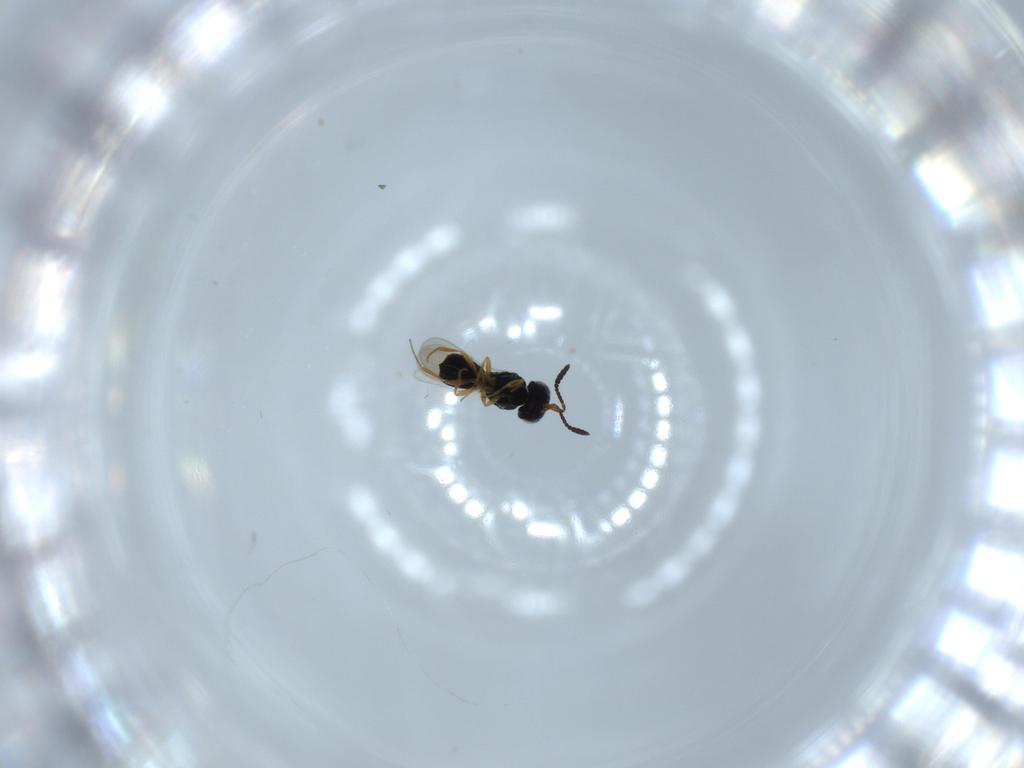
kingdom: Animalia
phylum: Arthropoda
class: Insecta
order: Hymenoptera
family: Scelionidae
